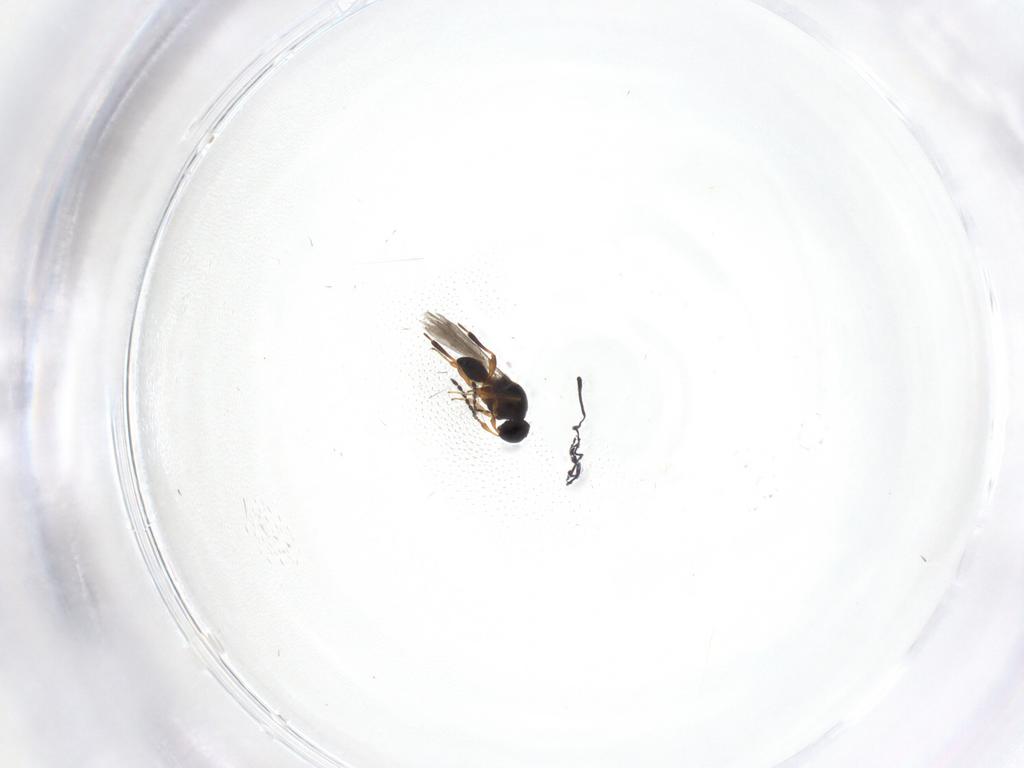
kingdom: Animalia
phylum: Arthropoda
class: Insecta
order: Hymenoptera
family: Platygastridae
